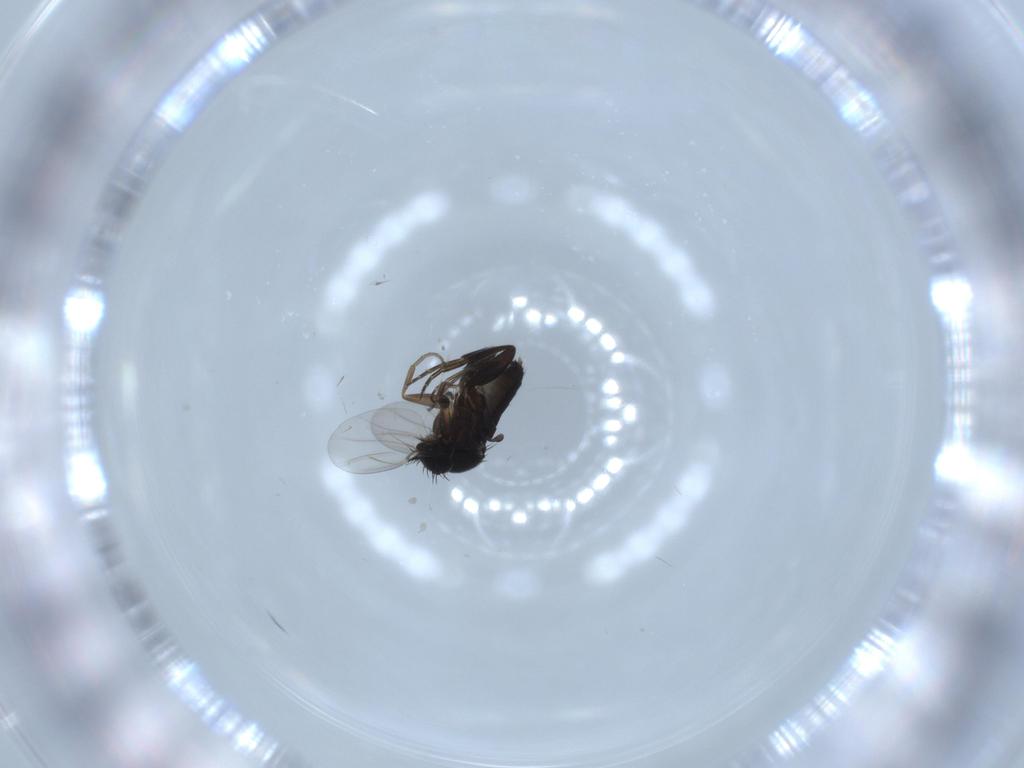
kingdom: Animalia
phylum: Arthropoda
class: Insecta
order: Diptera
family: Phoridae
